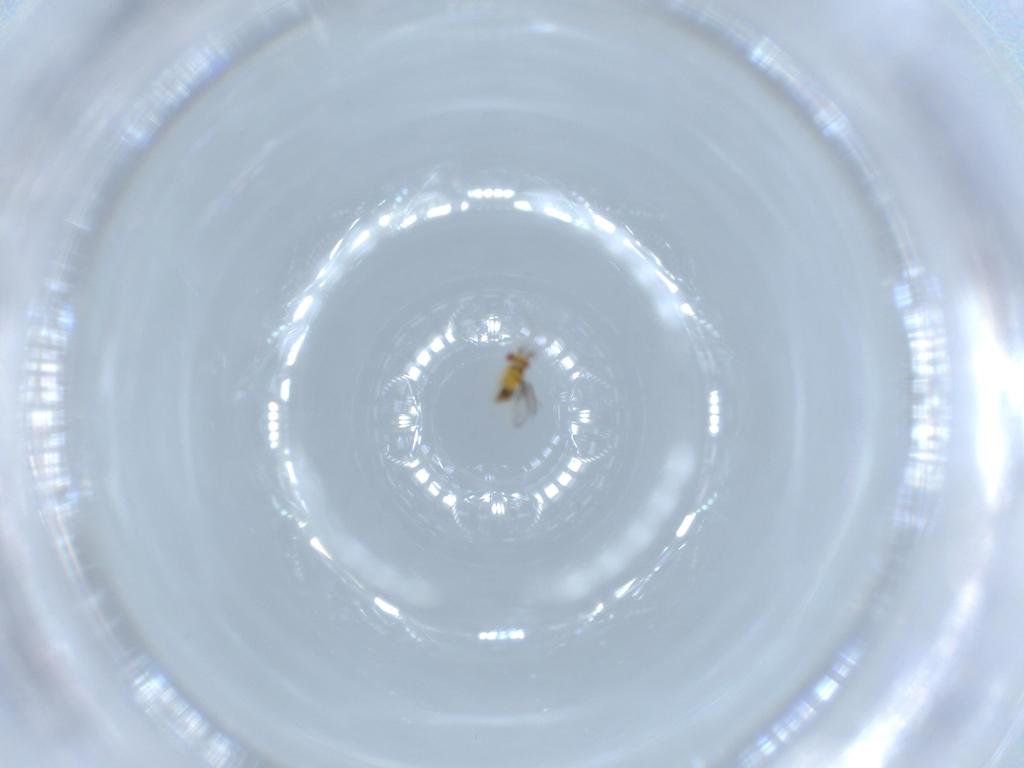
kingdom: Animalia
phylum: Arthropoda
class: Insecta
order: Hymenoptera
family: Trichogrammatidae
